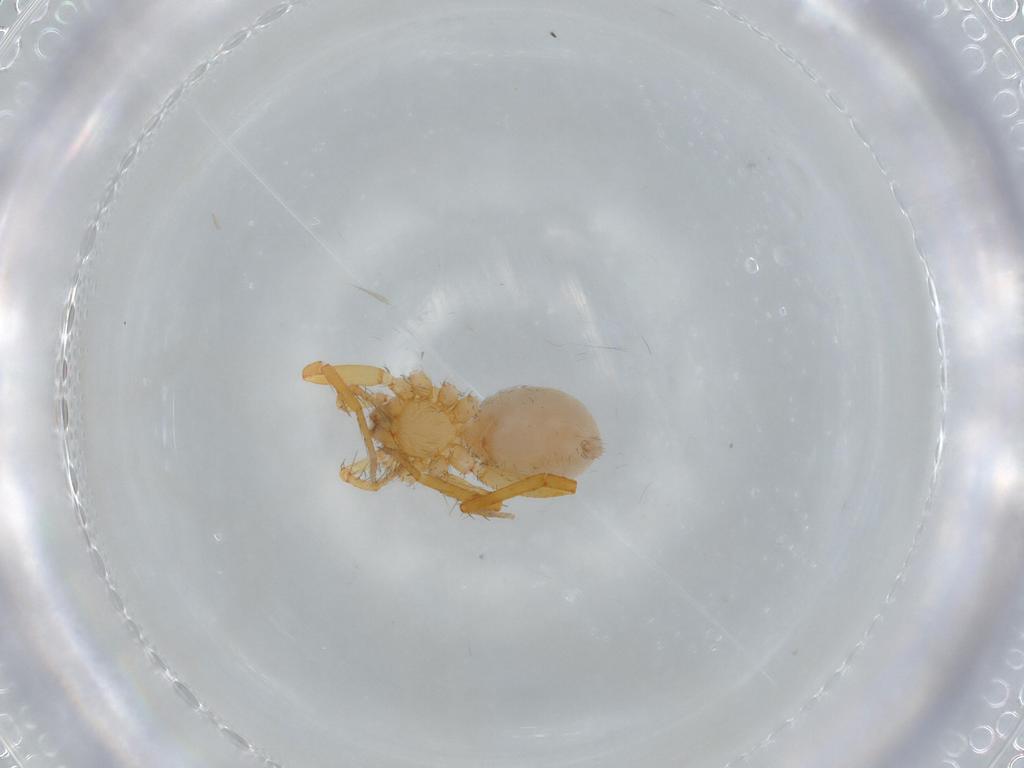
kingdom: Animalia
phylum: Arthropoda
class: Arachnida
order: Araneae
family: Oonopidae
